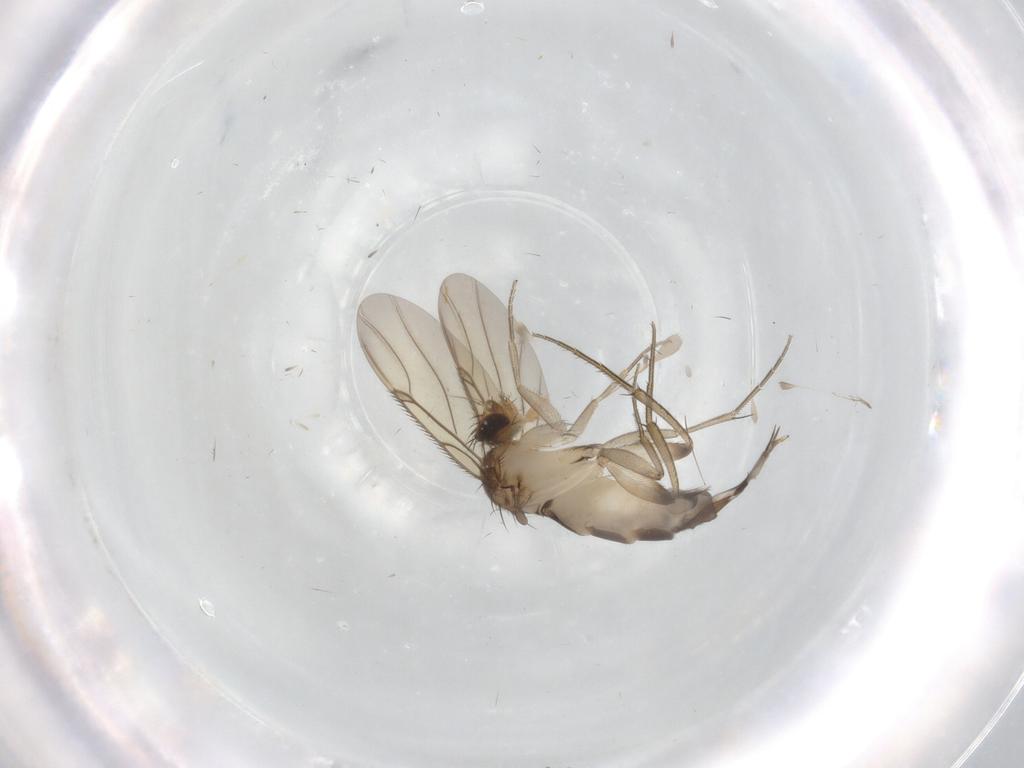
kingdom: Animalia
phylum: Arthropoda
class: Insecta
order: Diptera
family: Phoridae
